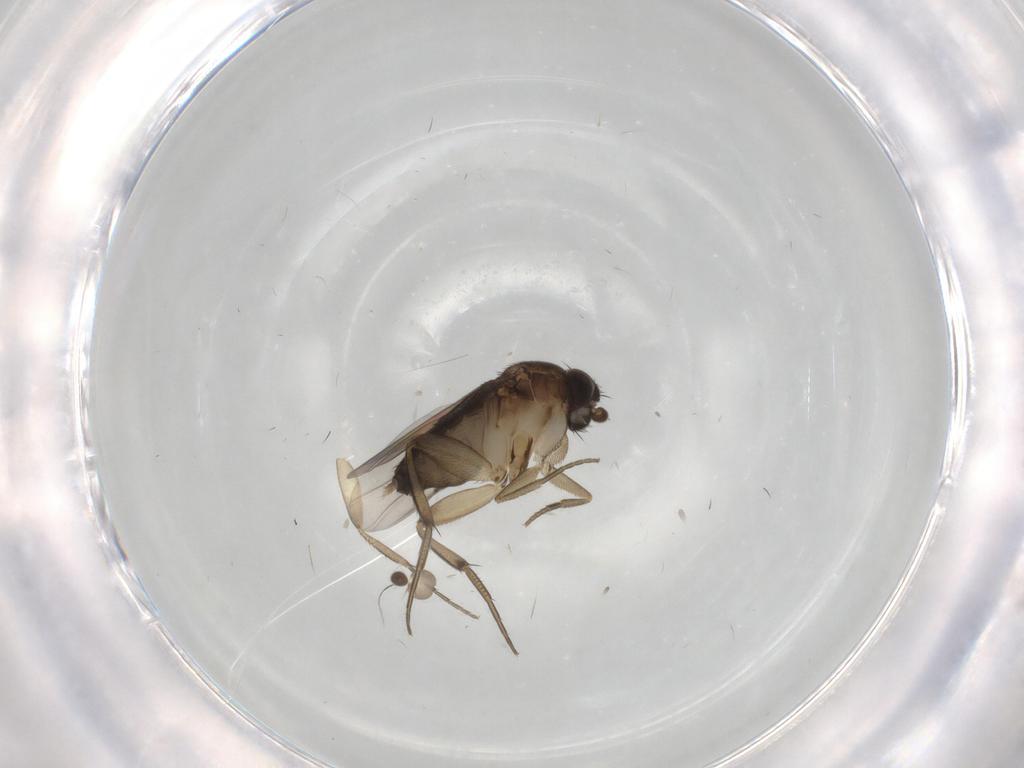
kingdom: Animalia
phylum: Arthropoda
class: Insecta
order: Diptera
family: Phoridae
